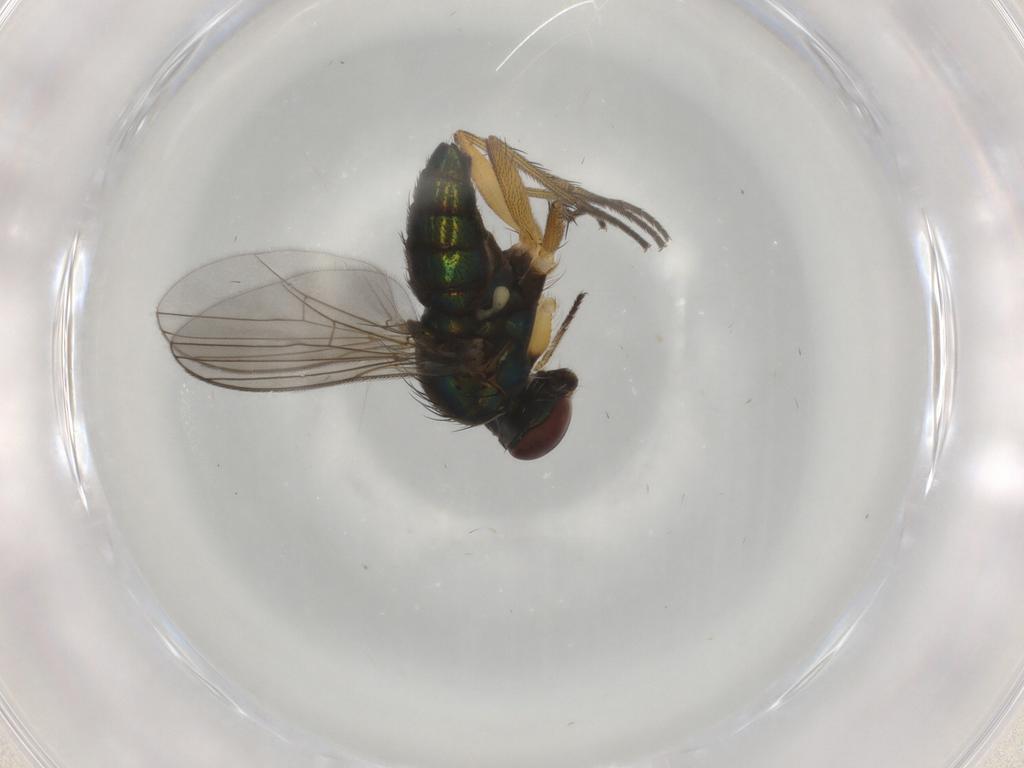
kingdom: Animalia
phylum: Arthropoda
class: Insecta
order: Diptera
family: Dolichopodidae
